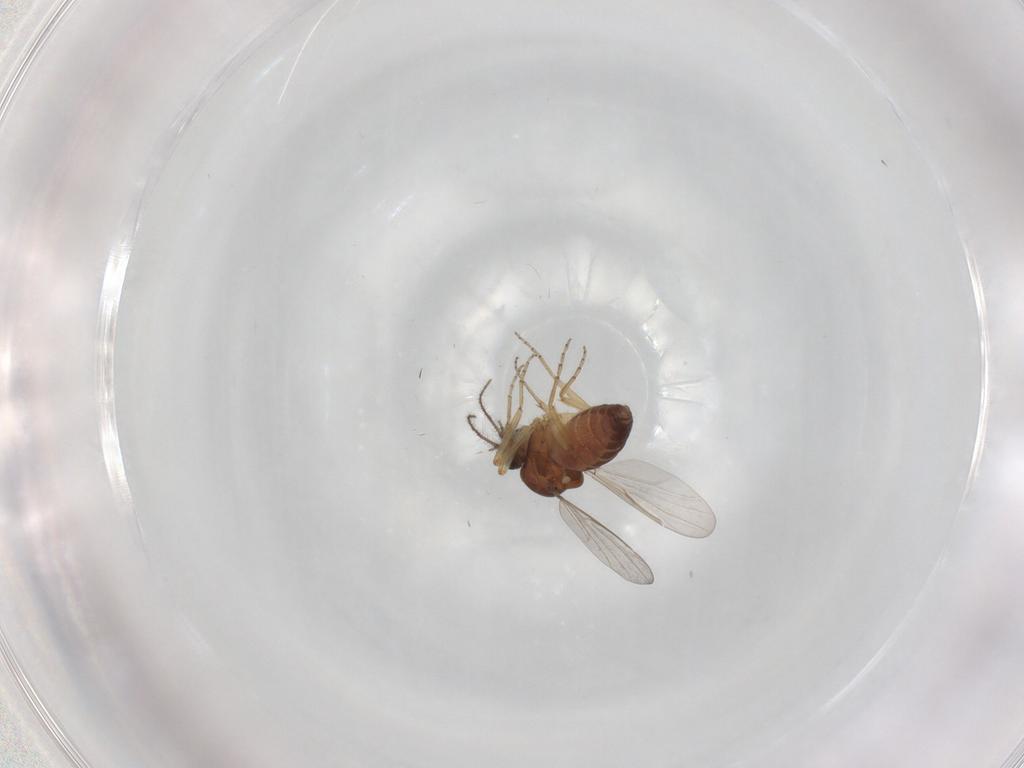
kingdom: Animalia
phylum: Arthropoda
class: Insecta
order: Diptera
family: Ceratopogonidae
